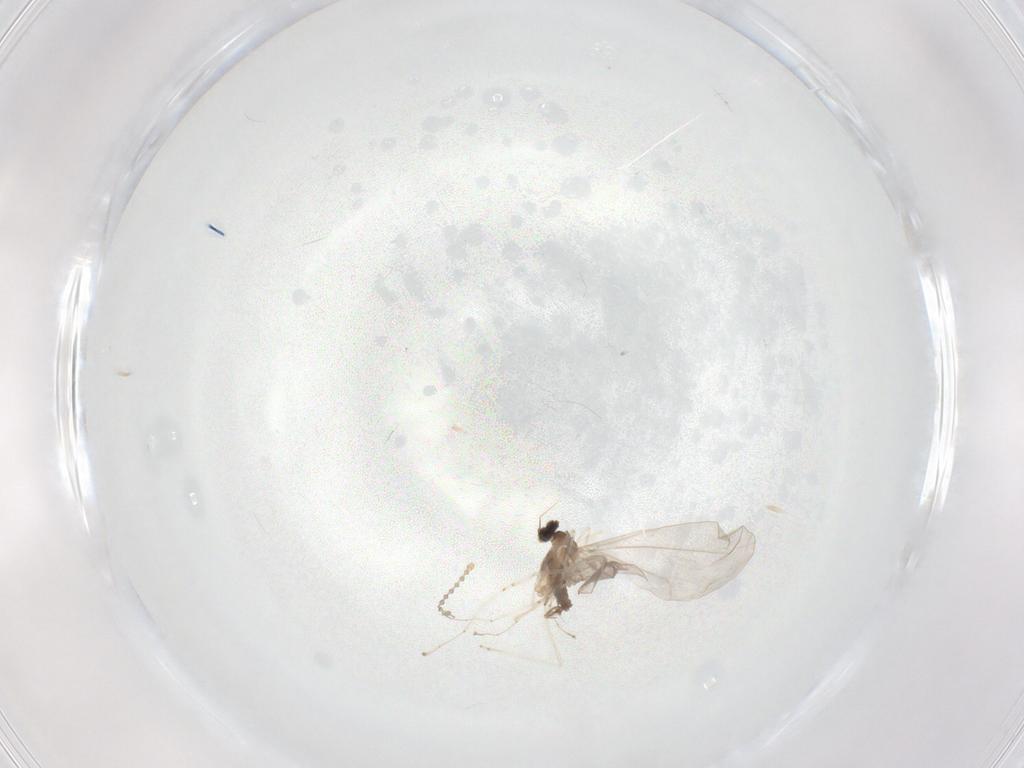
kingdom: Animalia
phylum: Arthropoda
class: Insecta
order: Diptera
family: Cecidomyiidae
